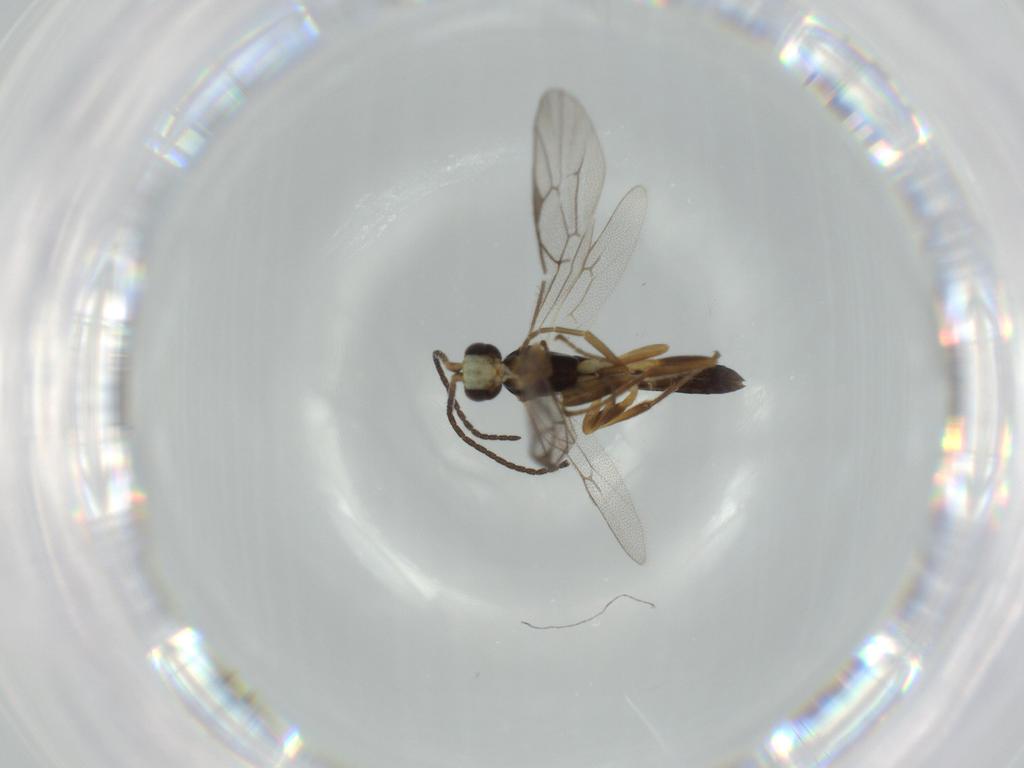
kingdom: Animalia
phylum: Arthropoda
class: Insecta
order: Hymenoptera
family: Ichneumonidae
